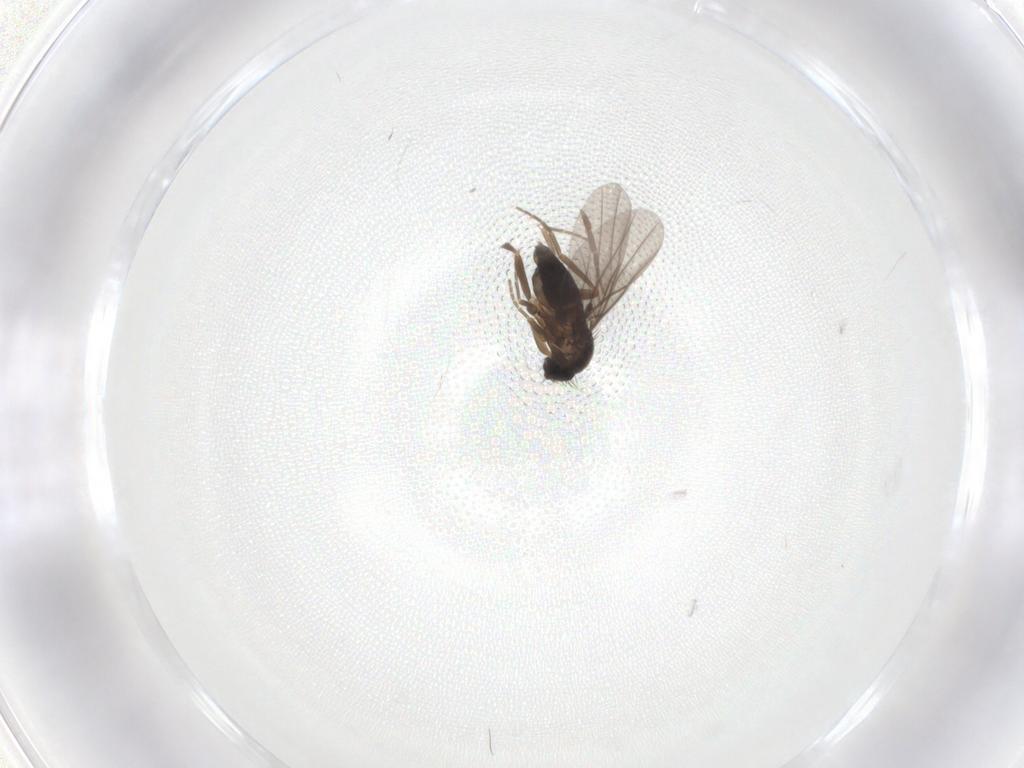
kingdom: Animalia
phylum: Arthropoda
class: Insecta
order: Diptera
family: Phoridae
